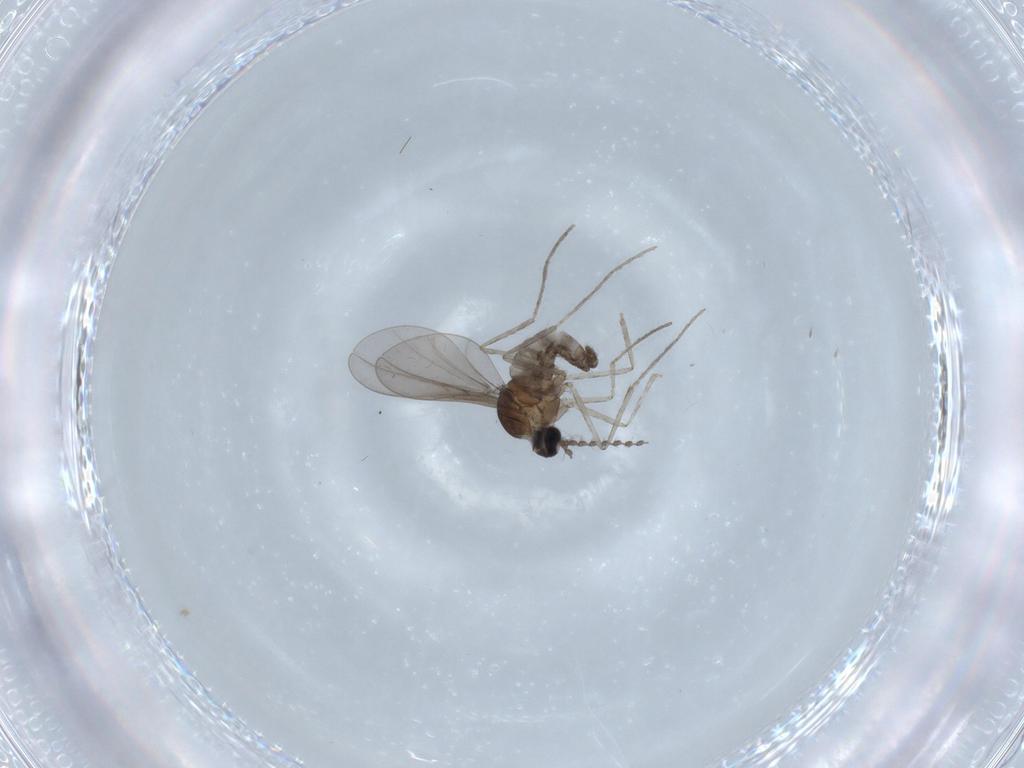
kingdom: Animalia
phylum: Arthropoda
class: Insecta
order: Diptera
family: Cecidomyiidae
